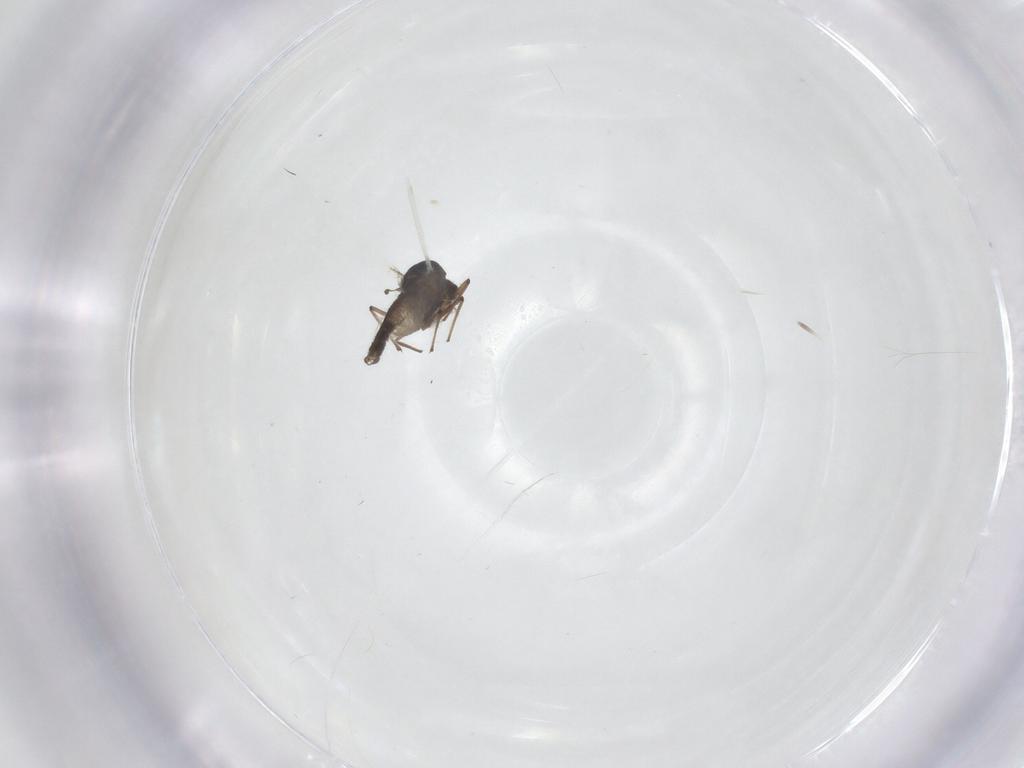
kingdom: Animalia
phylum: Arthropoda
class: Insecta
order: Diptera
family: Chironomidae
